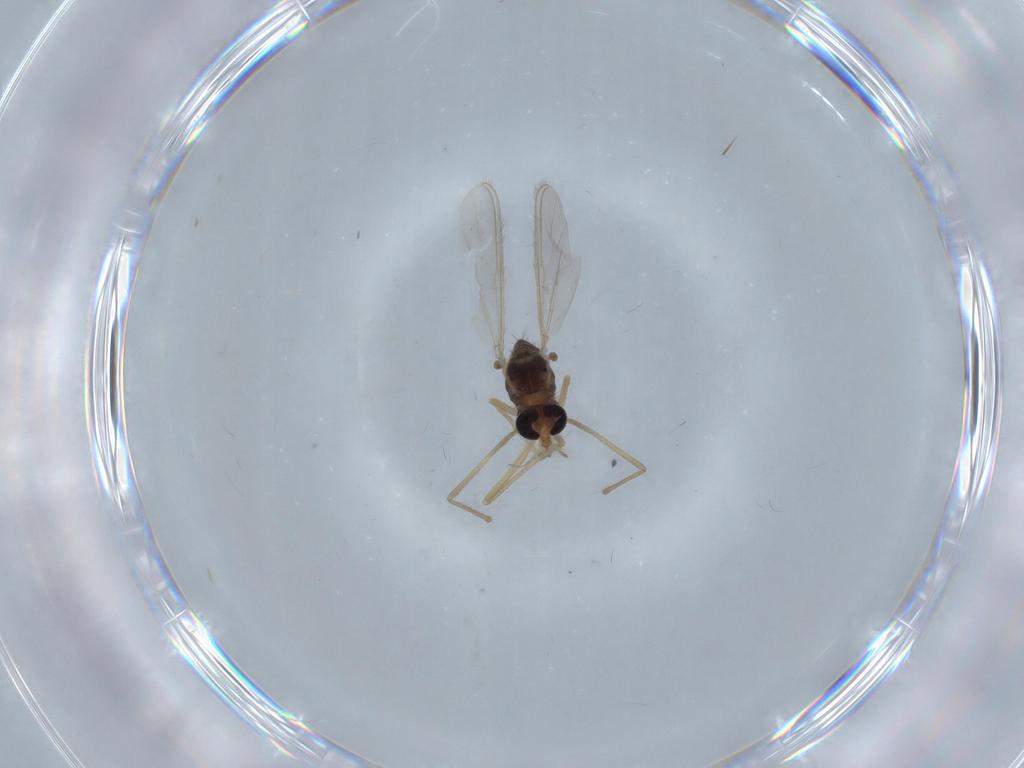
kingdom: Animalia
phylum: Arthropoda
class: Insecta
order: Diptera
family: Chironomidae
